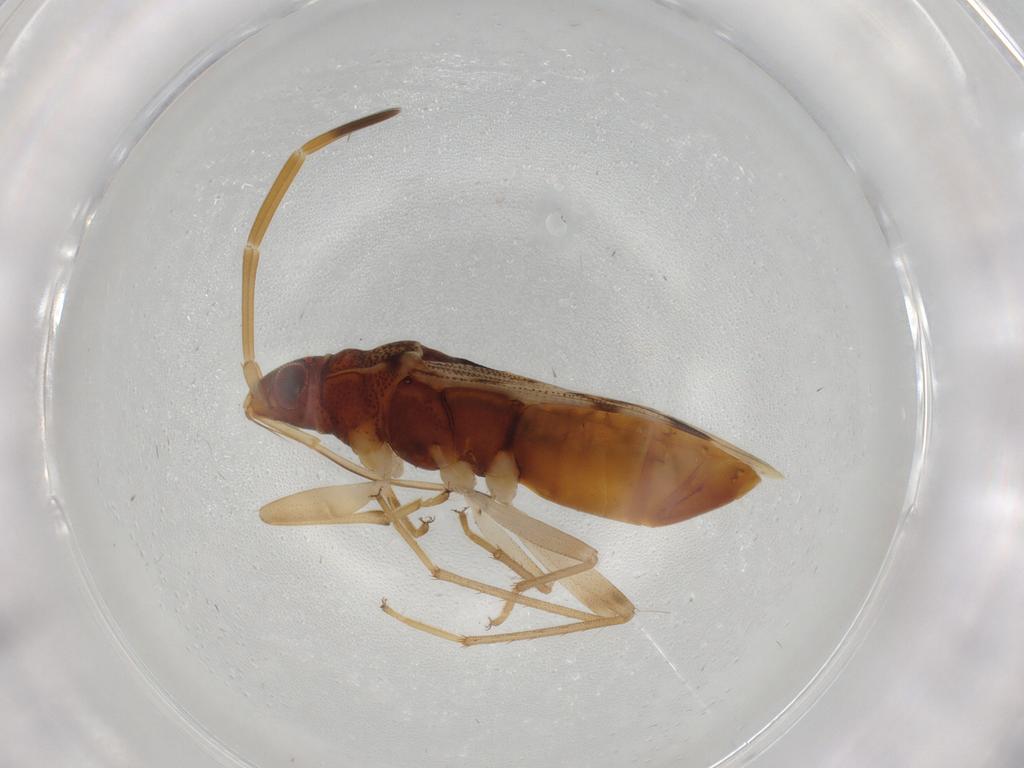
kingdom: Animalia
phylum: Arthropoda
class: Insecta
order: Hemiptera
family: Rhyparochromidae
